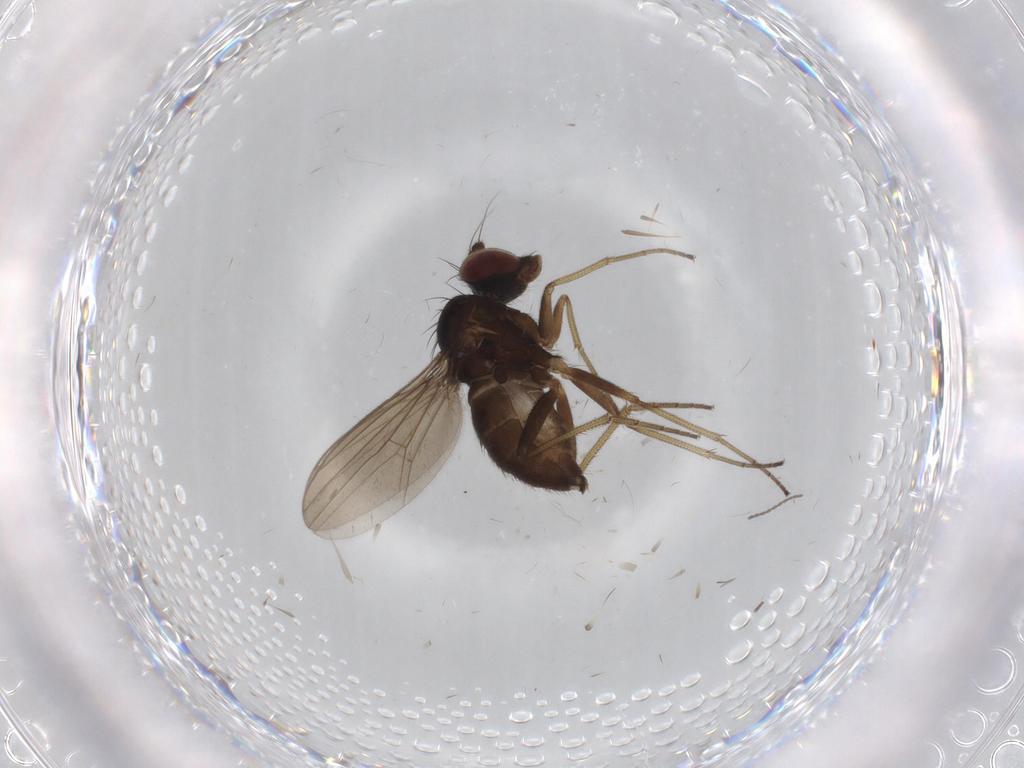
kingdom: Animalia
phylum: Arthropoda
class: Insecta
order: Diptera
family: Dolichopodidae
